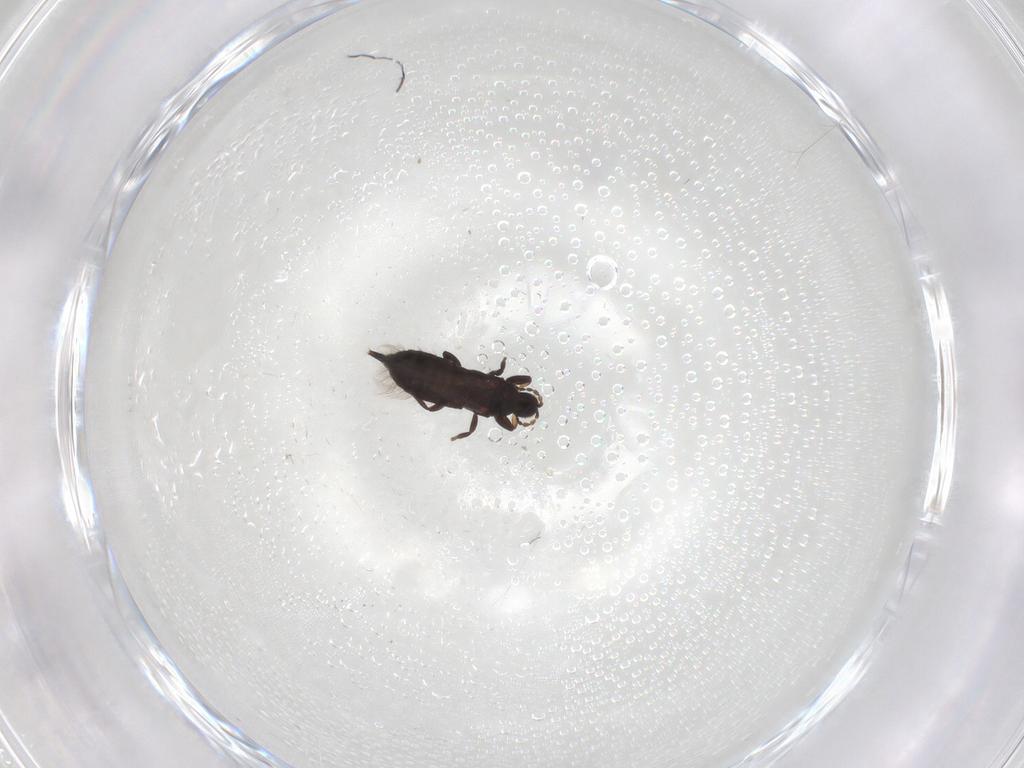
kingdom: Animalia
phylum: Arthropoda
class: Insecta
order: Thysanoptera
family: Phlaeothripidae
